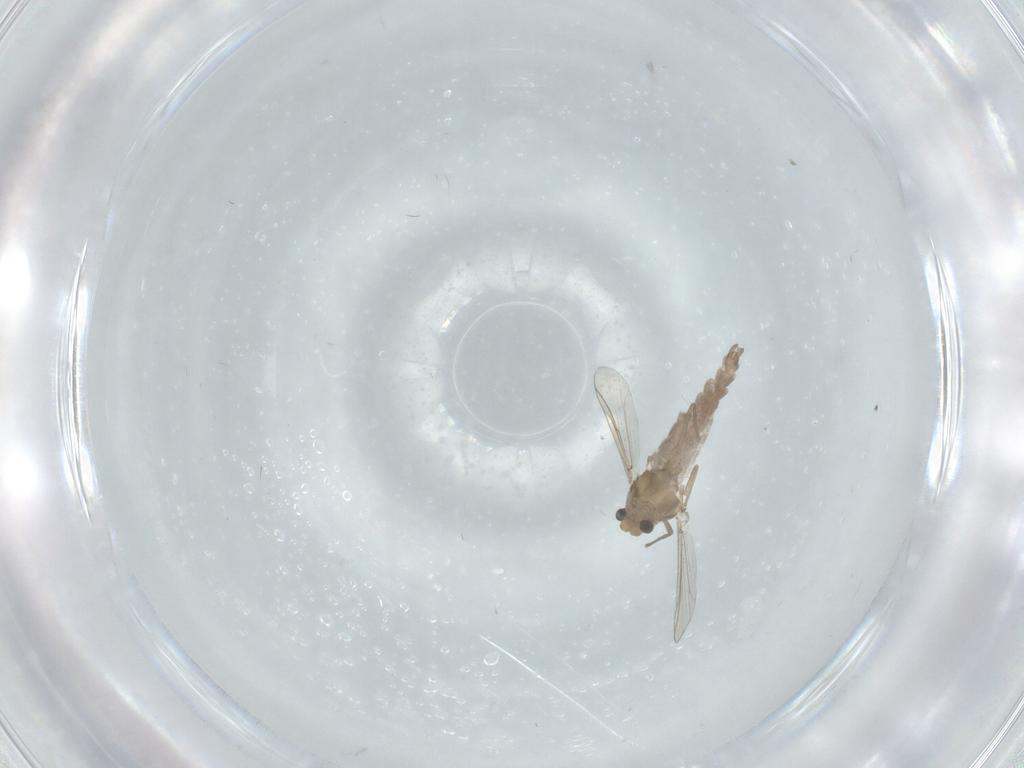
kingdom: Animalia
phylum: Arthropoda
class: Insecta
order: Diptera
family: Chironomidae
